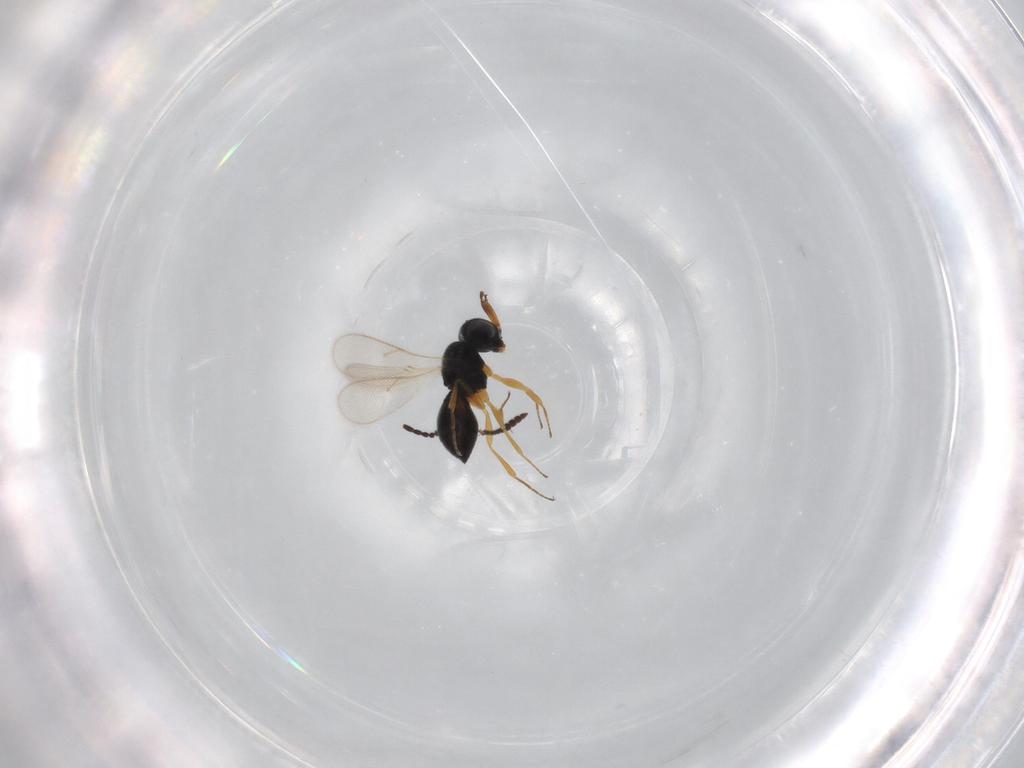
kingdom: Animalia
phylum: Arthropoda
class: Insecta
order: Hymenoptera
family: Scelionidae
